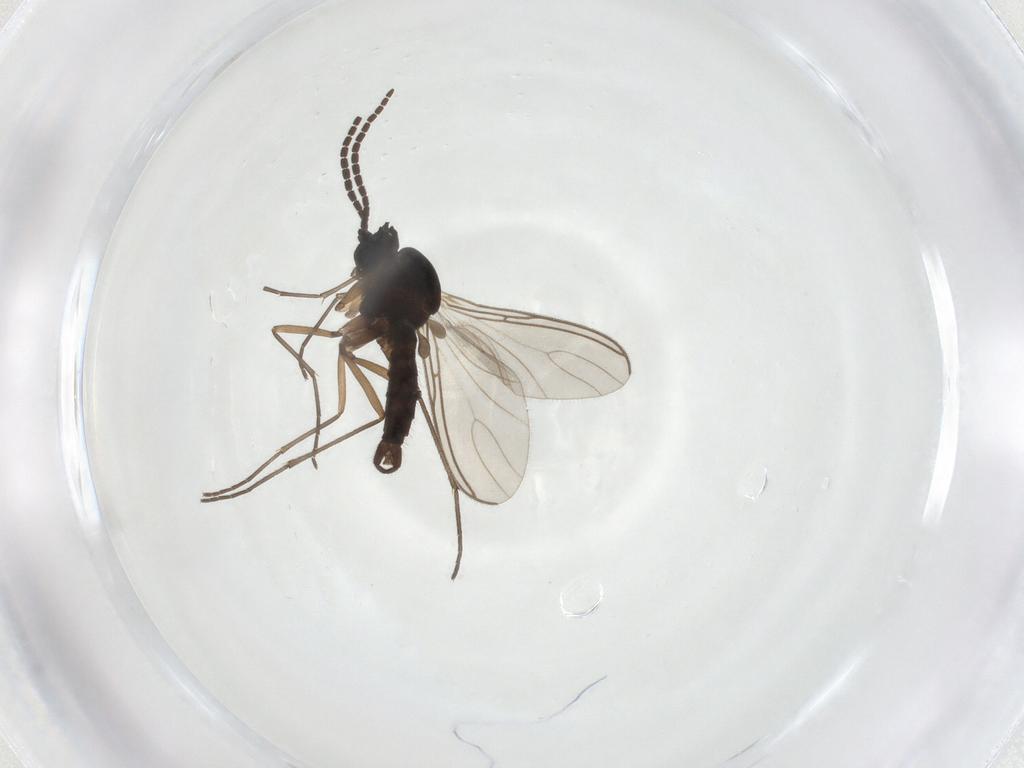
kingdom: Animalia
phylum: Arthropoda
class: Insecta
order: Diptera
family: Sciaridae
